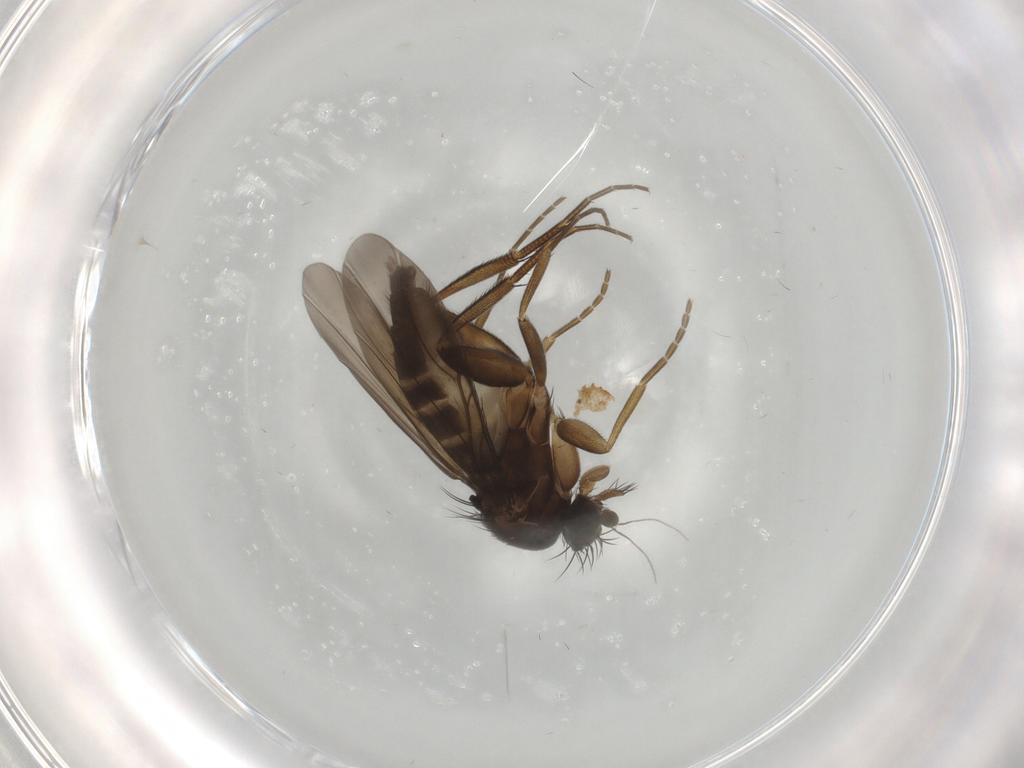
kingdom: Animalia
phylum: Arthropoda
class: Insecta
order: Diptera
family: Phoridae
